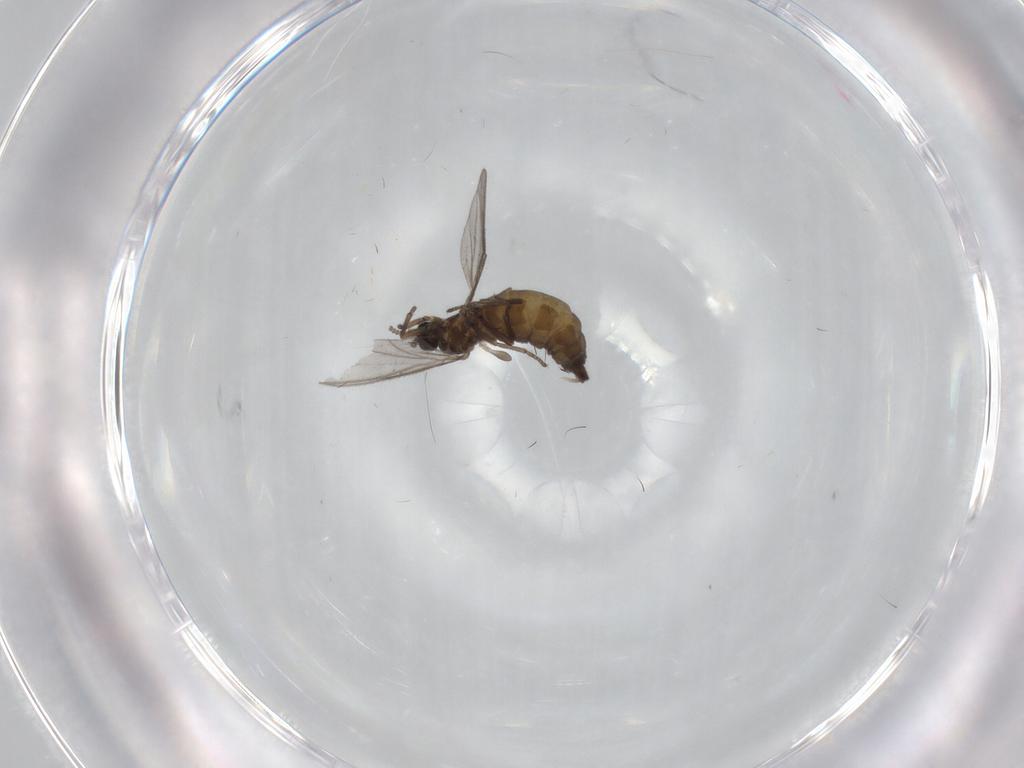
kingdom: Animalia
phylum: Arthropoda
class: Insecta
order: Diptera
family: Sciaridae
